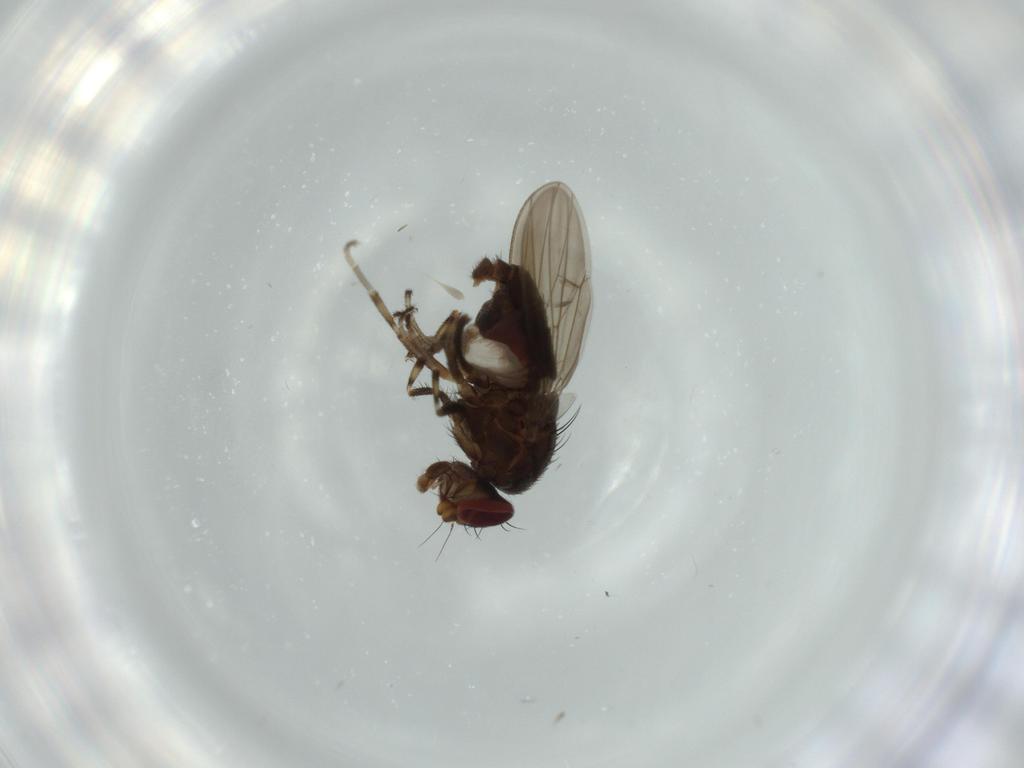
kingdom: Animalia
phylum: Arthropoda
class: Insecta
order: Diptera
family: Heleomyzidae
